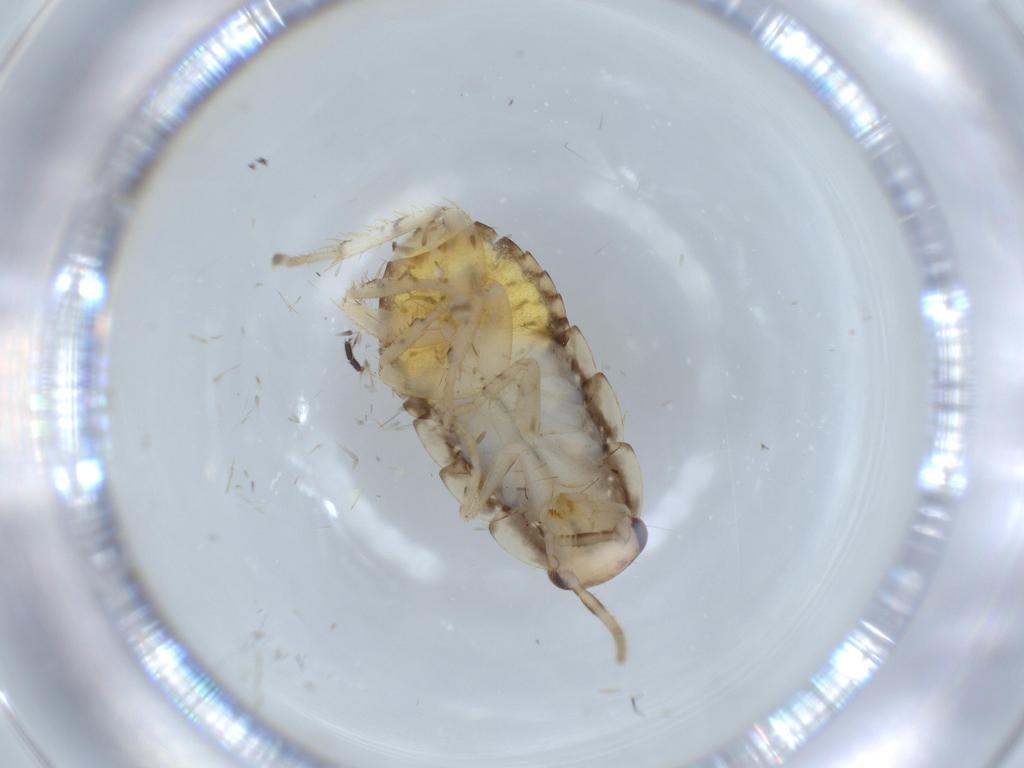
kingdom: Animalia
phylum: Arthropoda
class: Insecta
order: Blattodea
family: Ectobiidae
